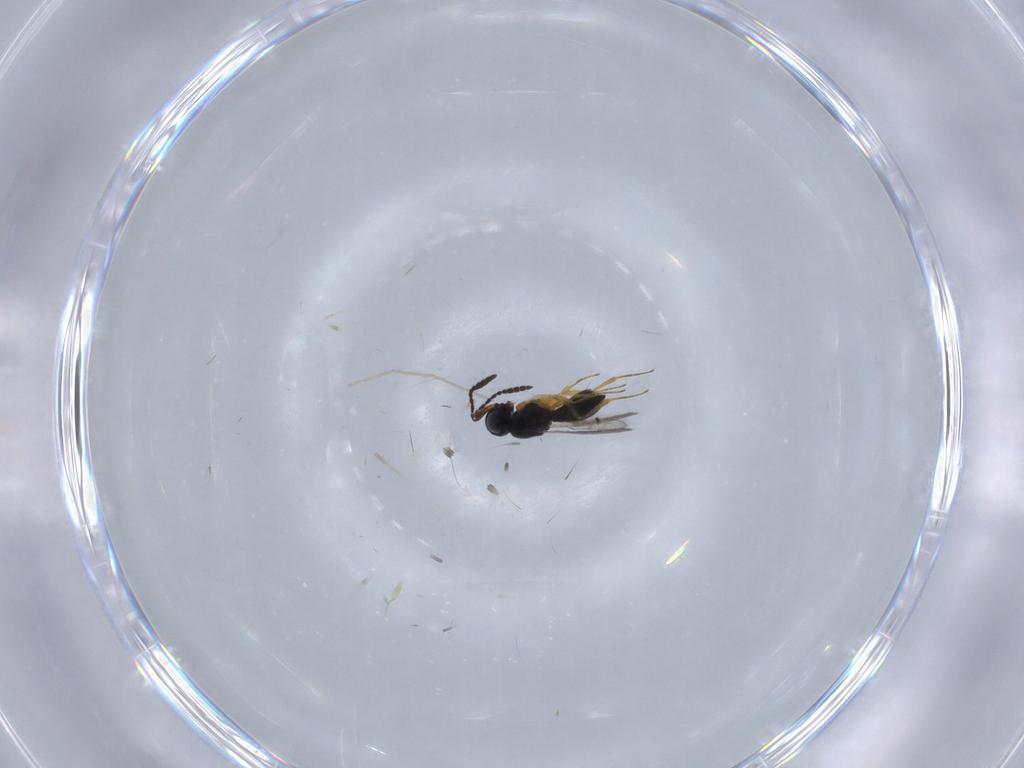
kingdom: Animalia
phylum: Arthropoda
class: Insecta
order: Hymenoptera
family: Scelionidae
